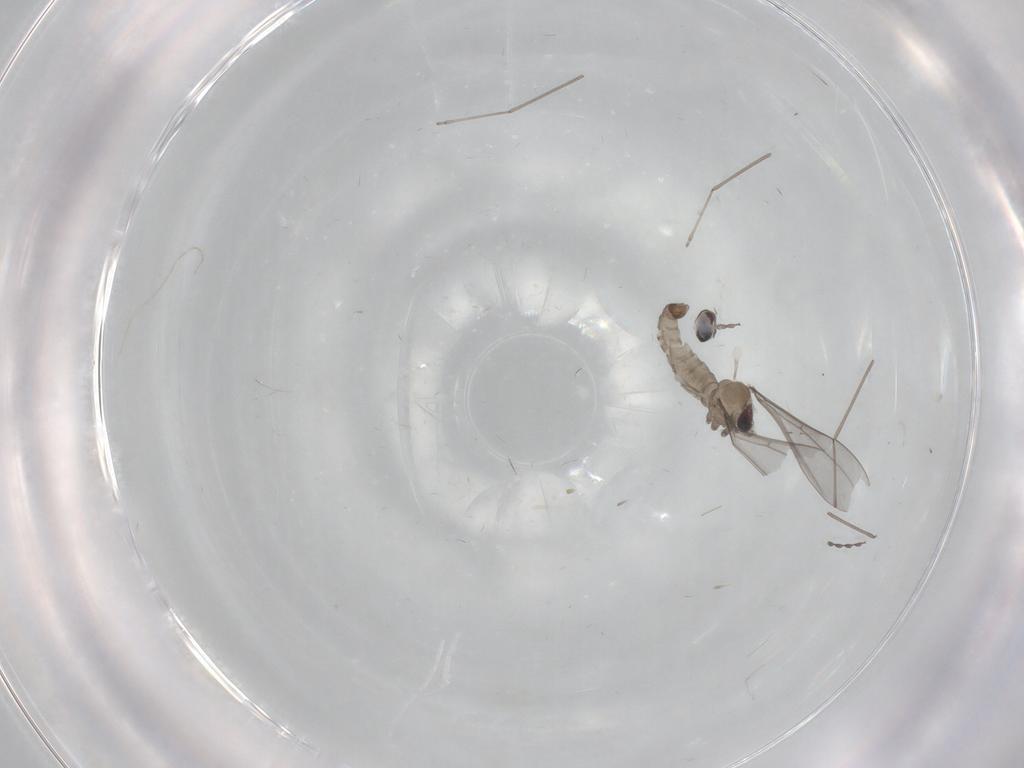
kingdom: Animalia
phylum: Arthropoda
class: Insecta
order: Diptera
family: Cecidomyiidae
